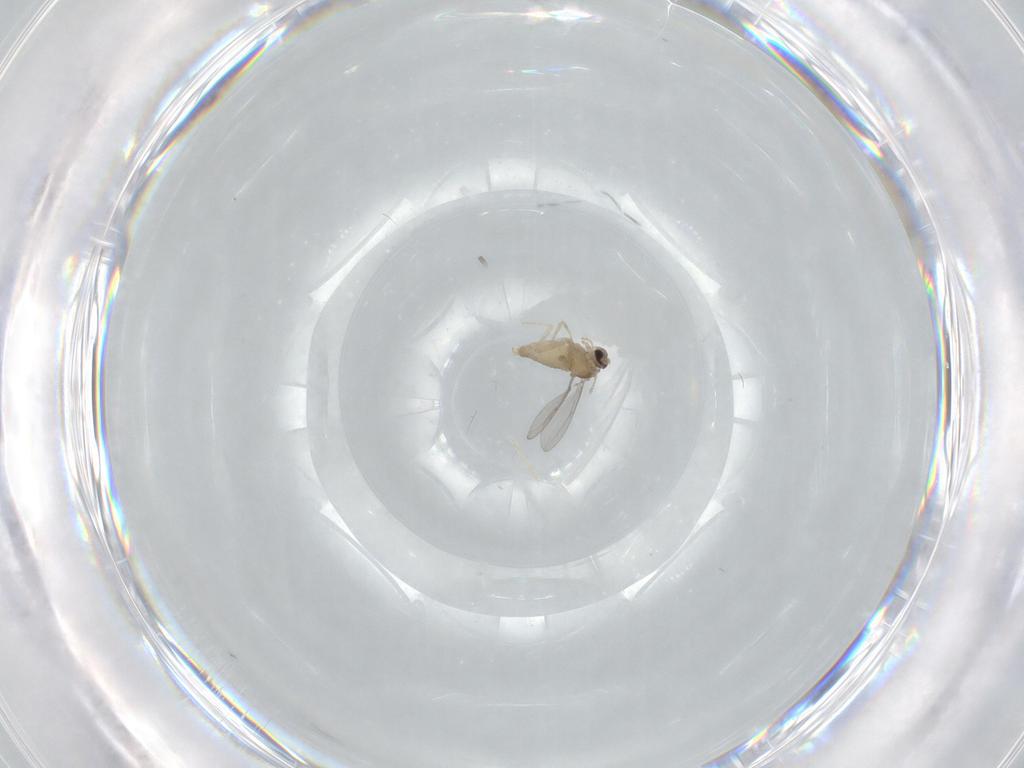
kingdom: Animalia
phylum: Arthropoda
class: Insecta
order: Diptera
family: Cecidomyiidae
